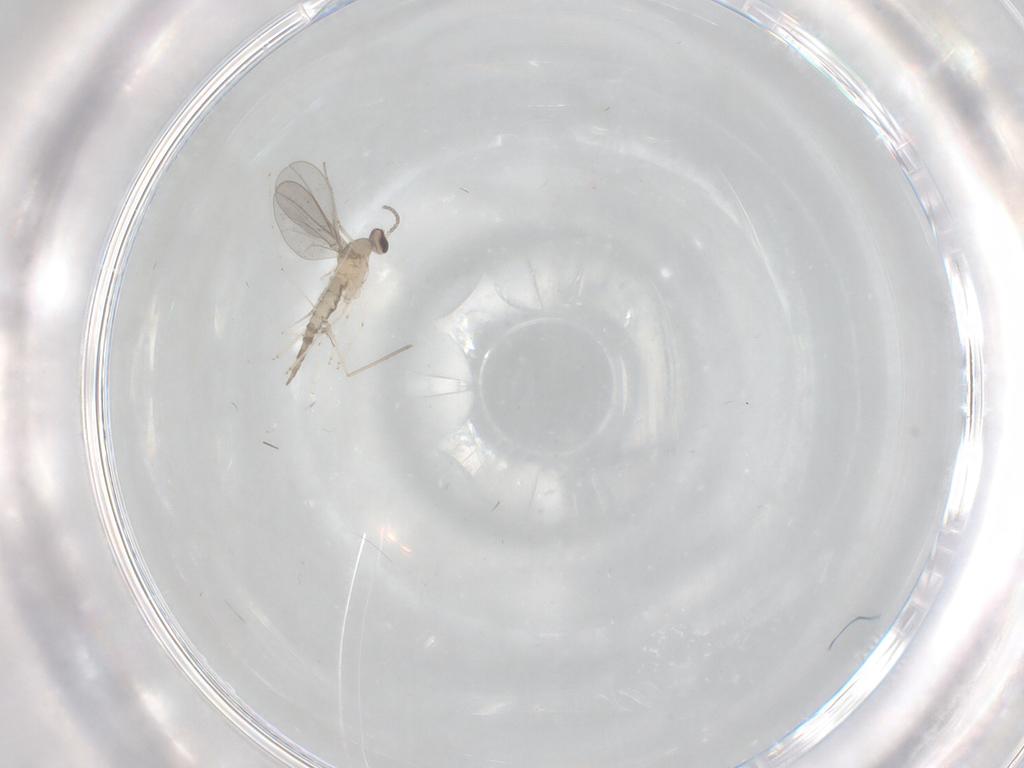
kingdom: Animalia
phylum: Arthropoda
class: Insecta
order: Diptera
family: Cecidomyiidae
